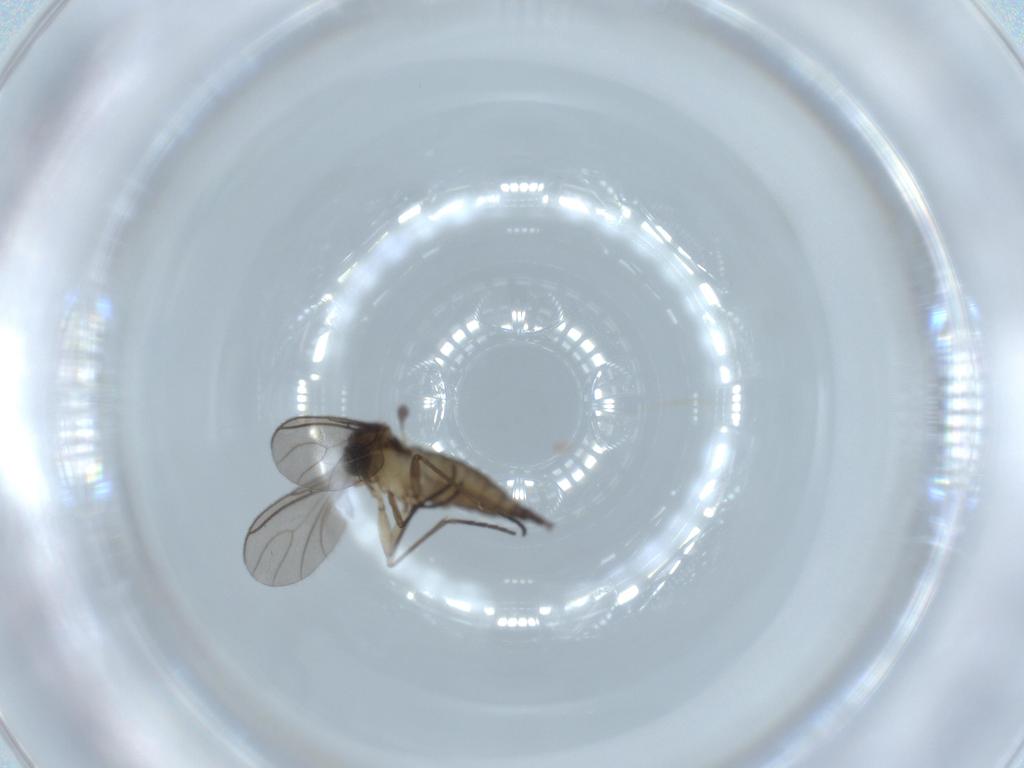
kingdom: Animalia
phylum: Arthropoda
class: Insecta
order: Diptera
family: Sciaridae
